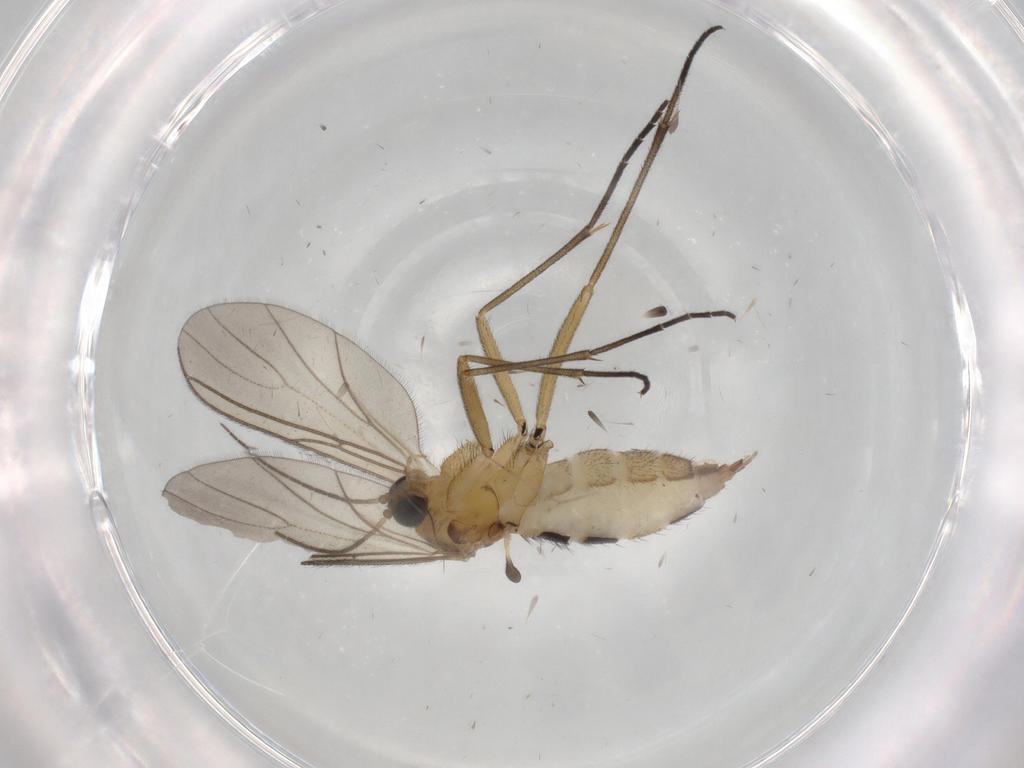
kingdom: Animalia
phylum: Arthropoda
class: Insecta
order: Diptera
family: Sciaridae
